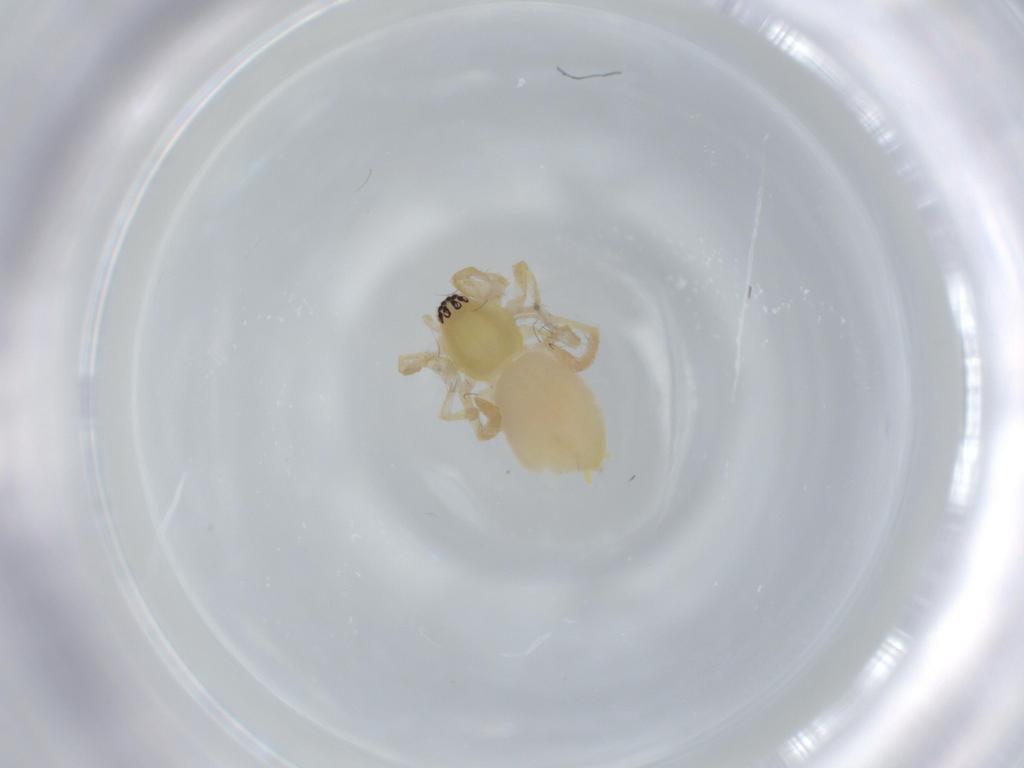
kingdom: Animalia
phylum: Arthropoda
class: Arachnida
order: Araneae
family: Anyphaenidae
